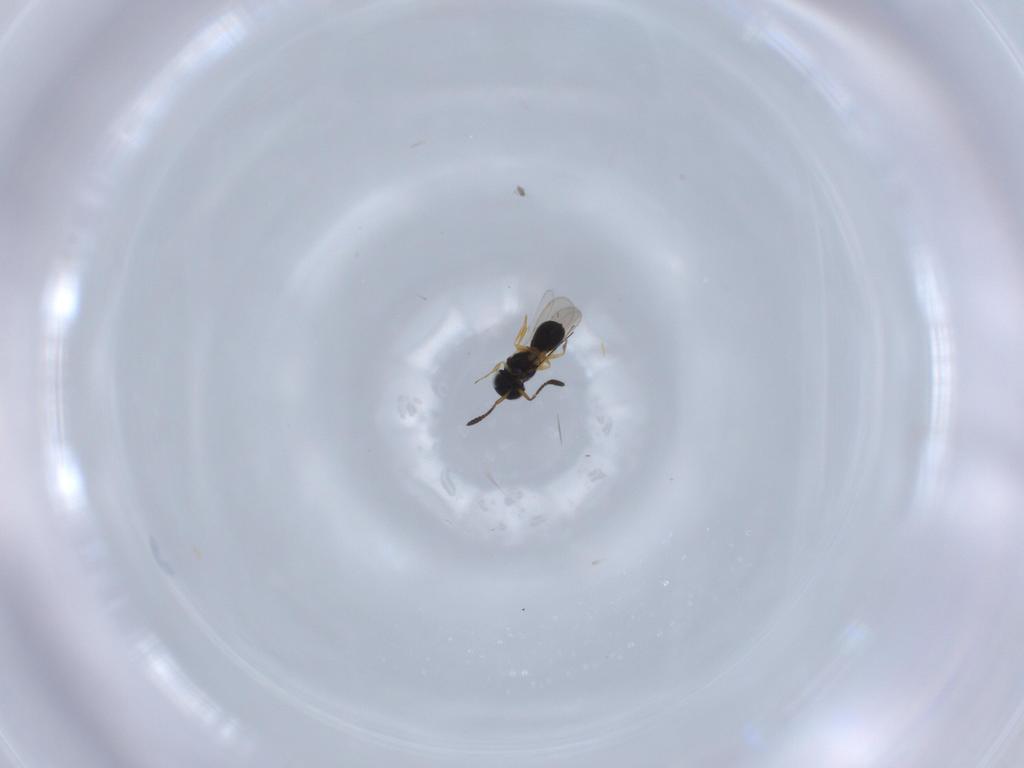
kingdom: Animalia
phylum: Arthropoda
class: Insecta
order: Hymenoptera
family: Scelionidae
